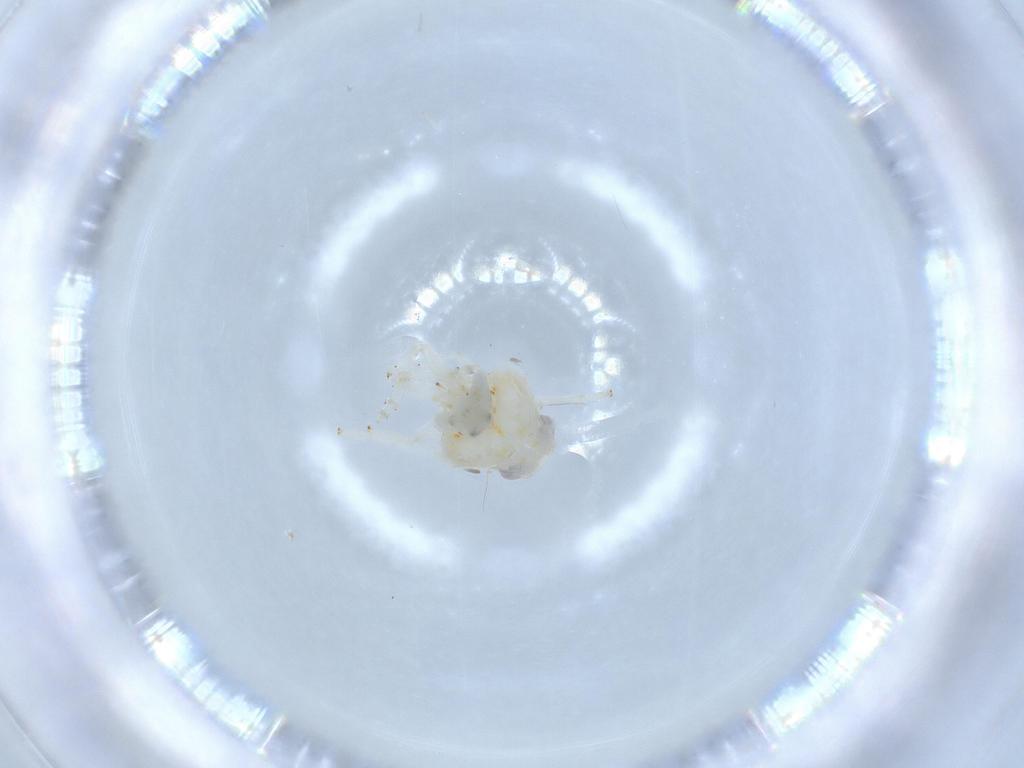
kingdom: Animalia
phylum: Arthropoda
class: Insecta
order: Hemiptera
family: Nogodinidae
